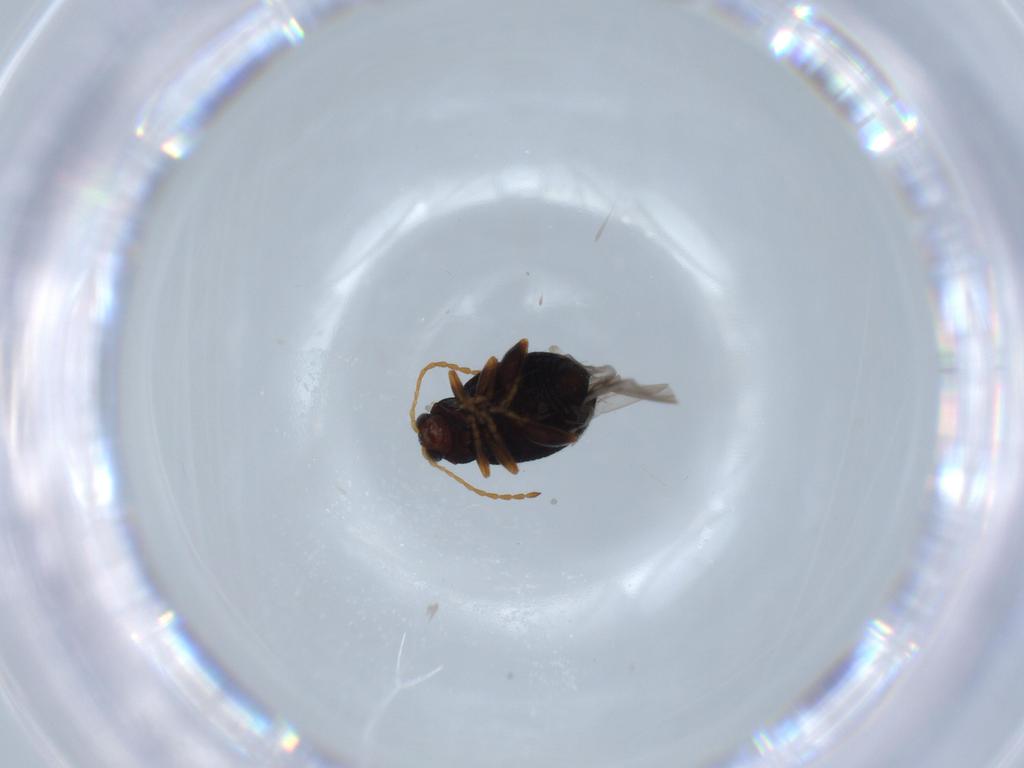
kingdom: Animalia
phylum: Arthropoda
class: Insecta
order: Coleoptera
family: Chrysomelidae
